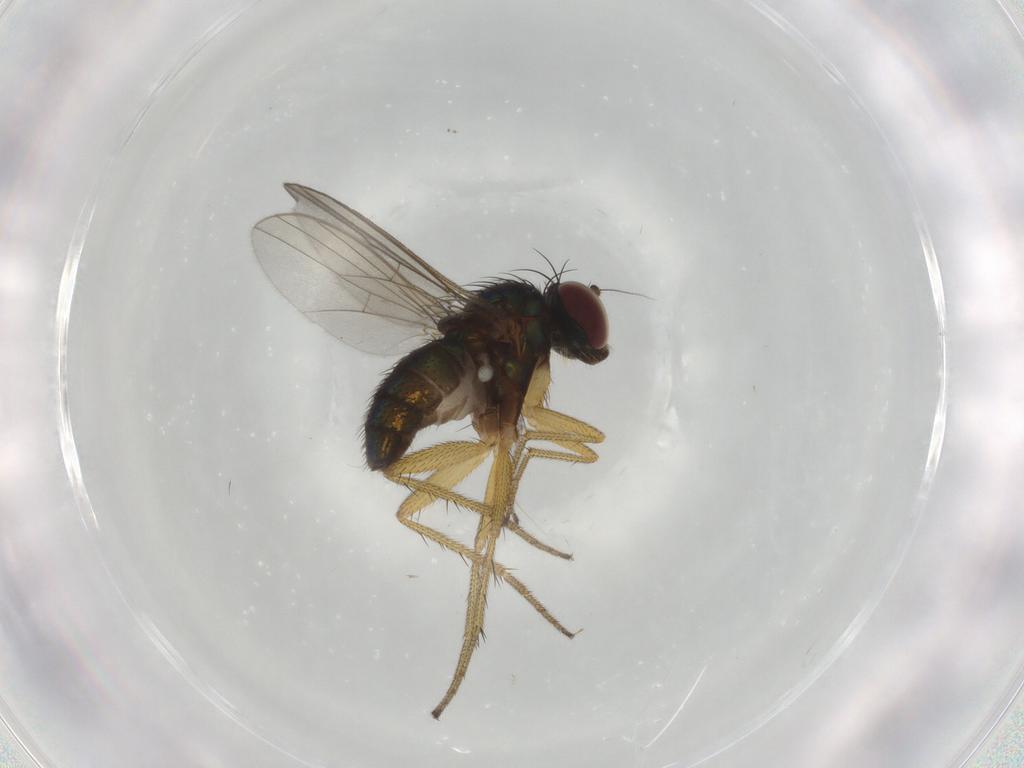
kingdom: Animalia
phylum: Arthropoda
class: Insecta
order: Diptera
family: Cecidomyiidae
